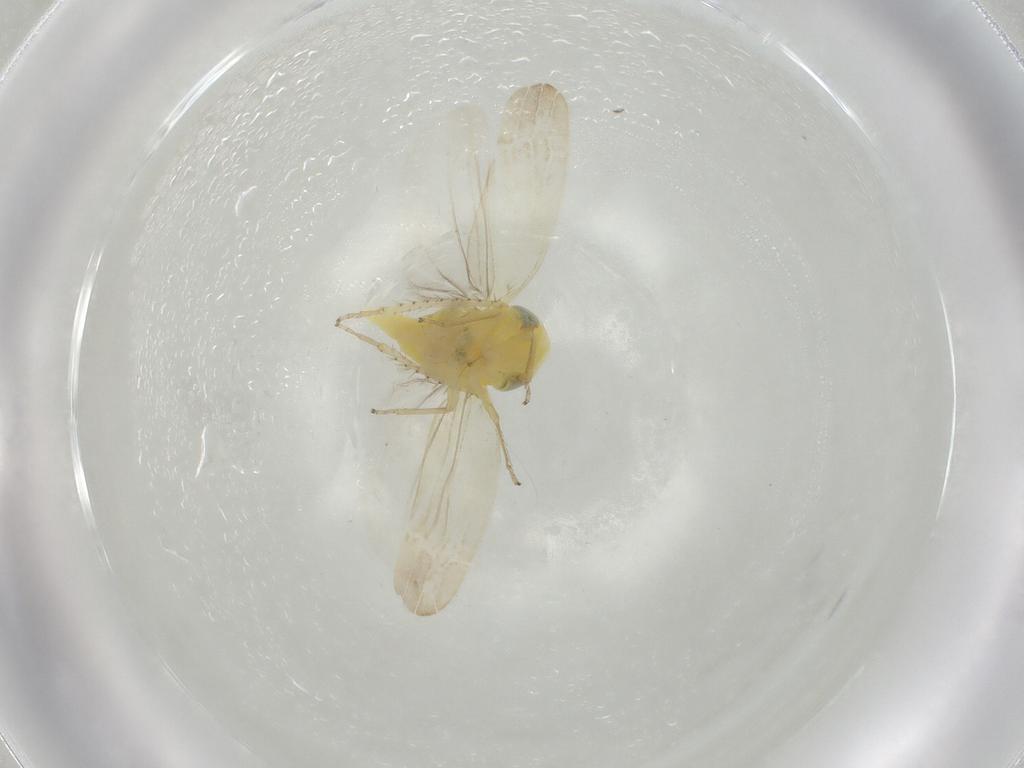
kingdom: Animalia
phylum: Arthropoda
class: Insecta
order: Hemiptera
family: Cicadellidae
